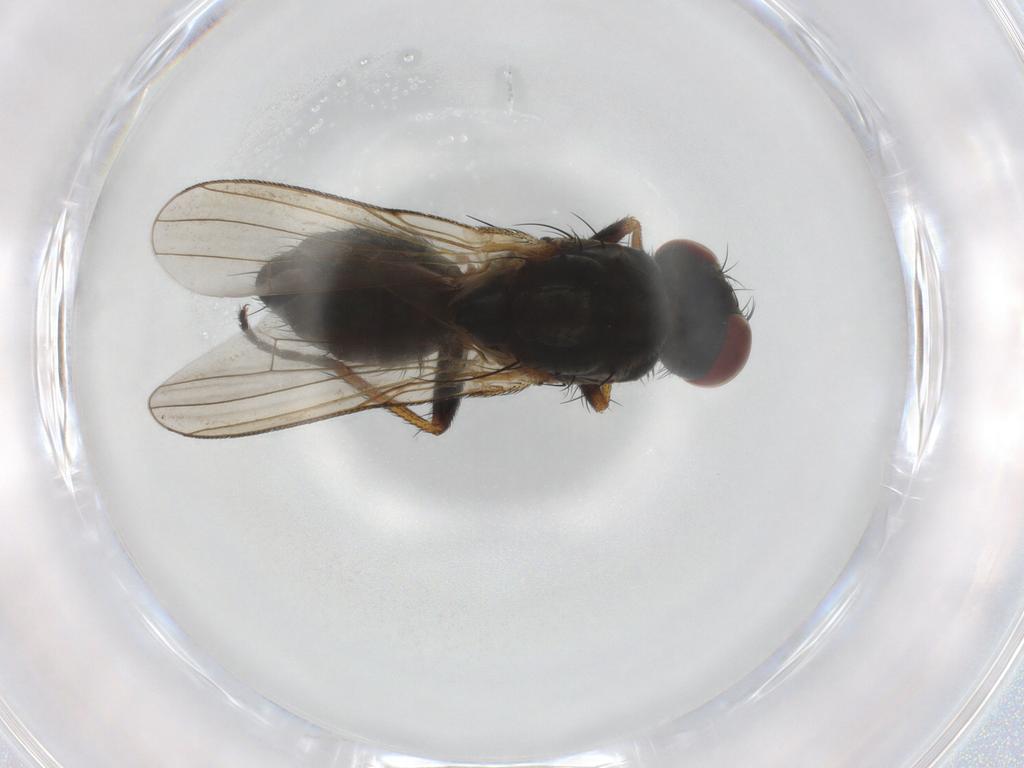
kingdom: Animalia
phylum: Arthropoda
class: Insecta
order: Diptera
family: Muscidae
